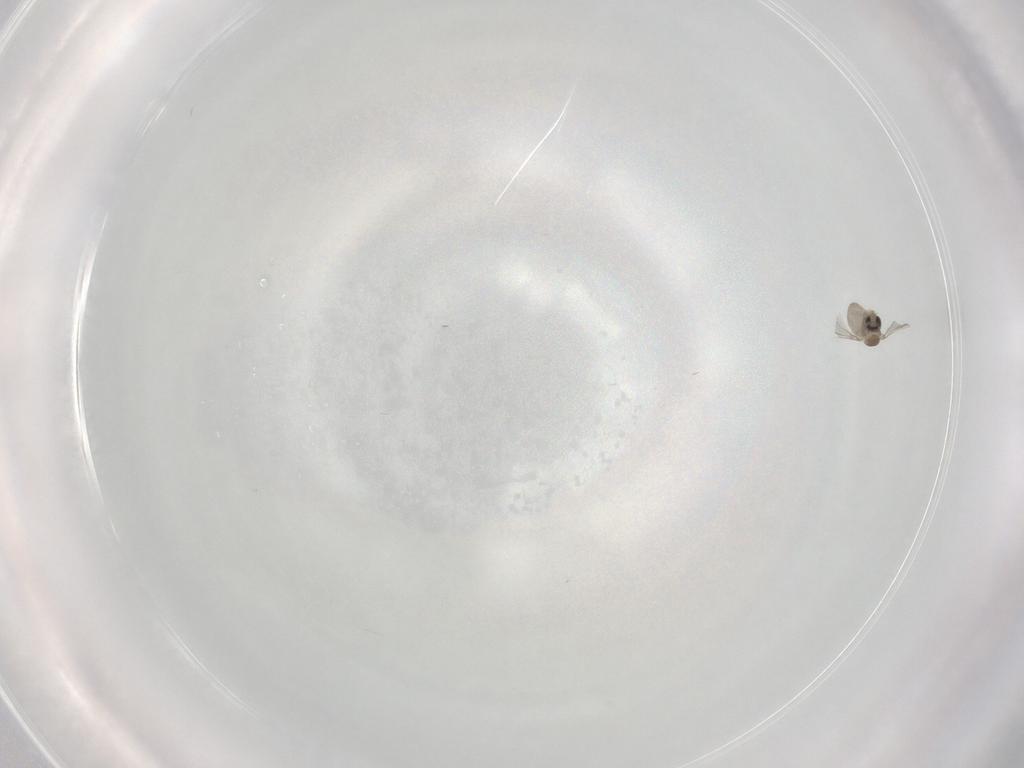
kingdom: Animalia
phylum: Arthropoda
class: Insecta
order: Diptera
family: Cecidomyiidae
